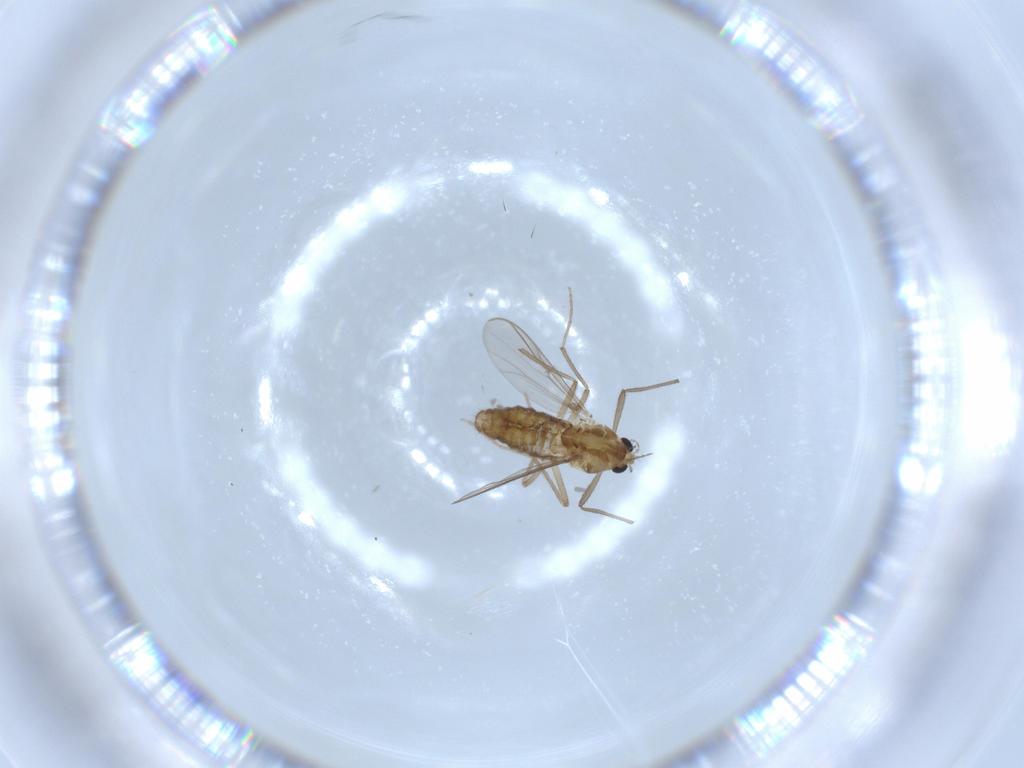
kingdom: Animalia
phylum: Arthropoda
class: Insecta
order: Diptera
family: Chironomidae
